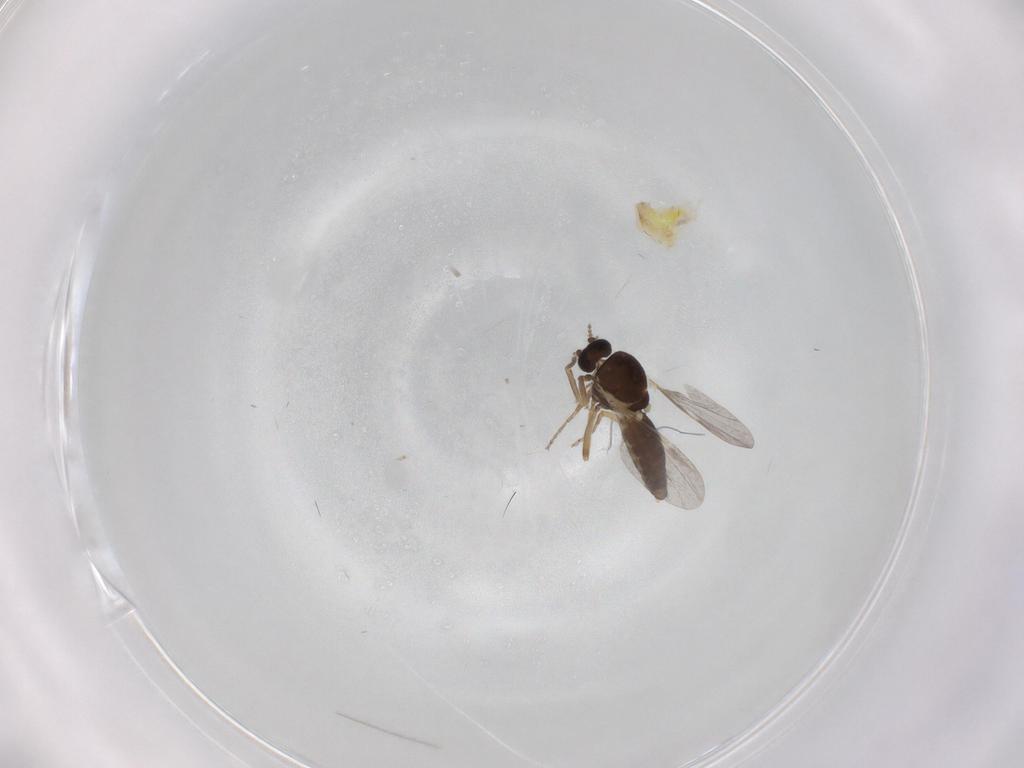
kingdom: Animalia
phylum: Arthropoda
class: Insecta
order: Diptera
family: Ceratopogonidae
